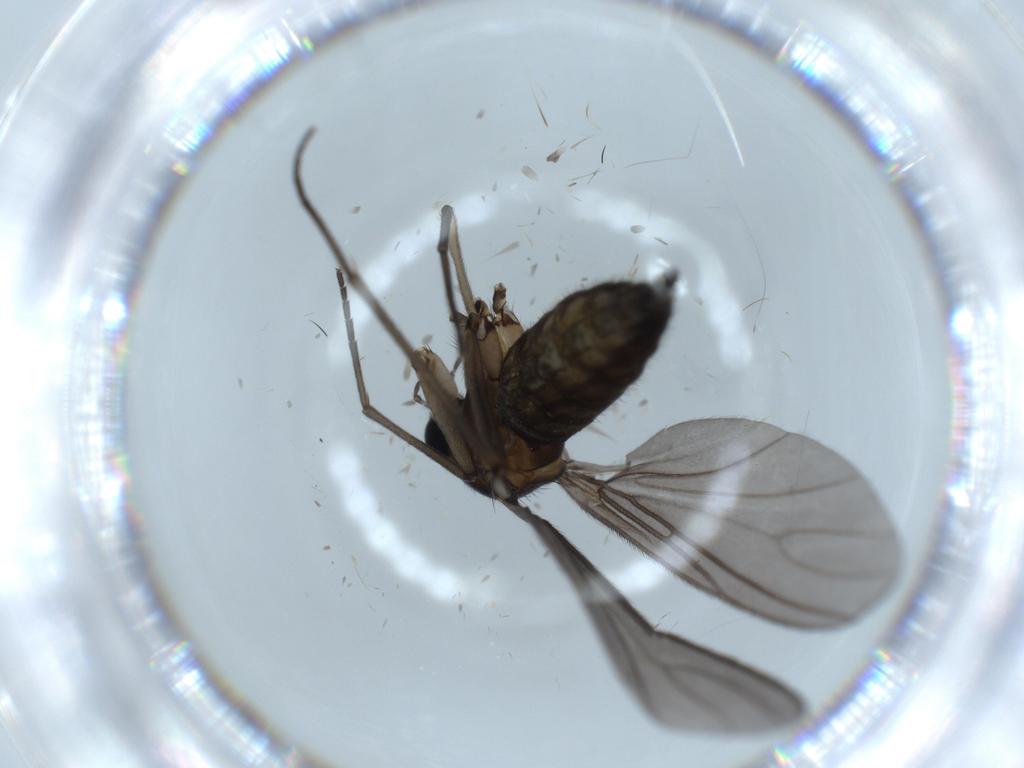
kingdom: Animalia
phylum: Arthropoda
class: Insecta
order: Diptera
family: Sciaridae
